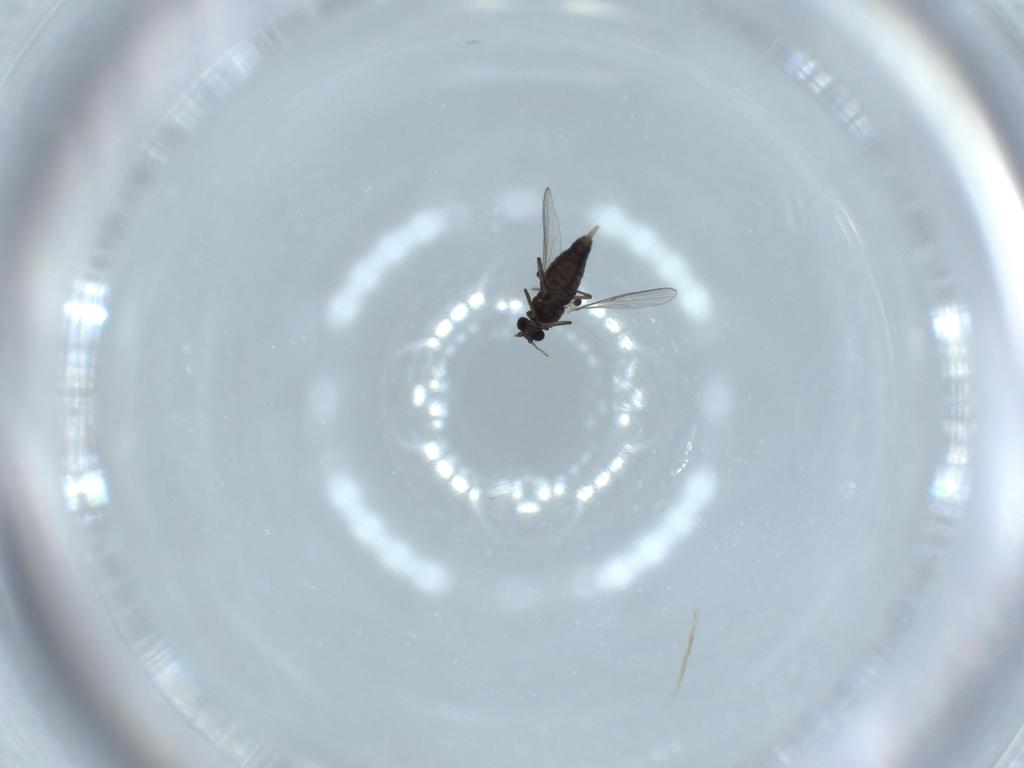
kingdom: Animalia
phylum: Arthropoda
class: Insecta
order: Diptera
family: Chironomidae
